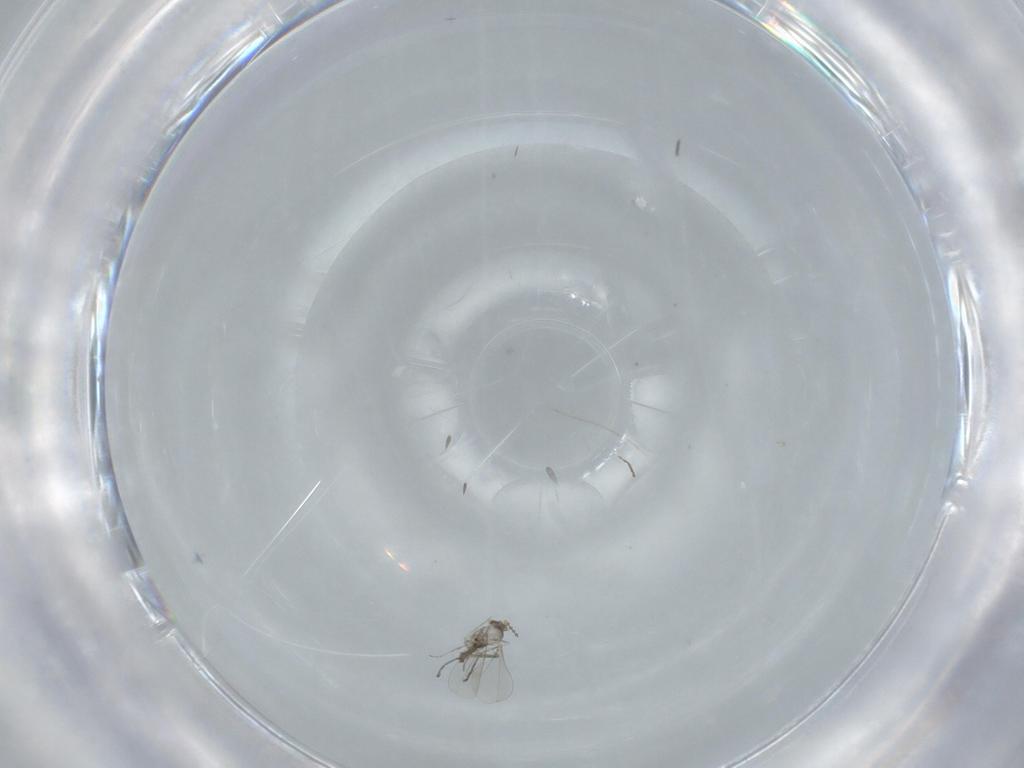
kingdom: Animalia
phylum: Arthropoda
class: Insecta
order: Diptera
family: Cecidomyiidae
